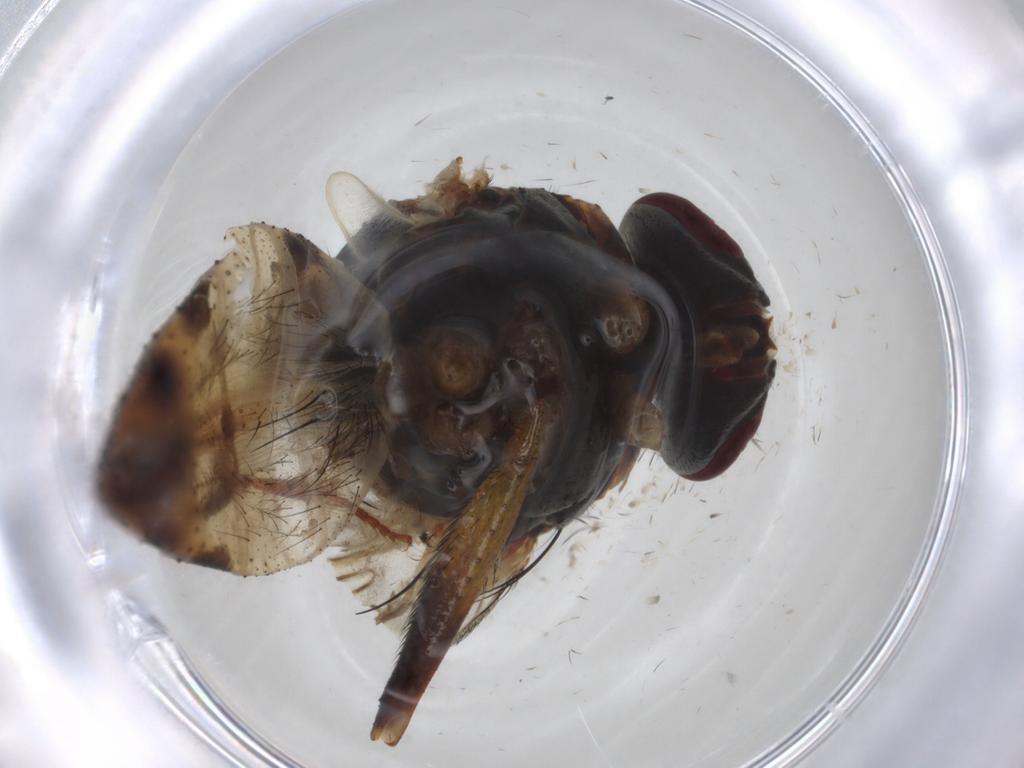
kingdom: Animalia
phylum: Arthropoda
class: Insecta
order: Diptera
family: Muscidae
